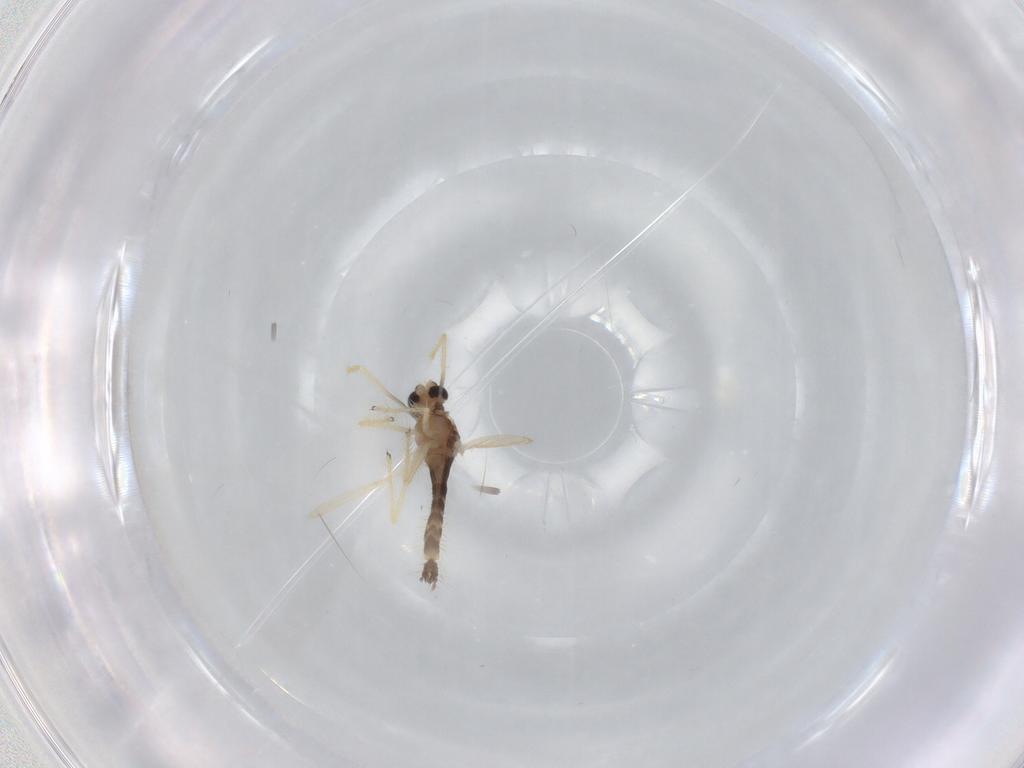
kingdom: Animalia
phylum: Arthropoda
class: Insecta
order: Diptera
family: Chironomidae
